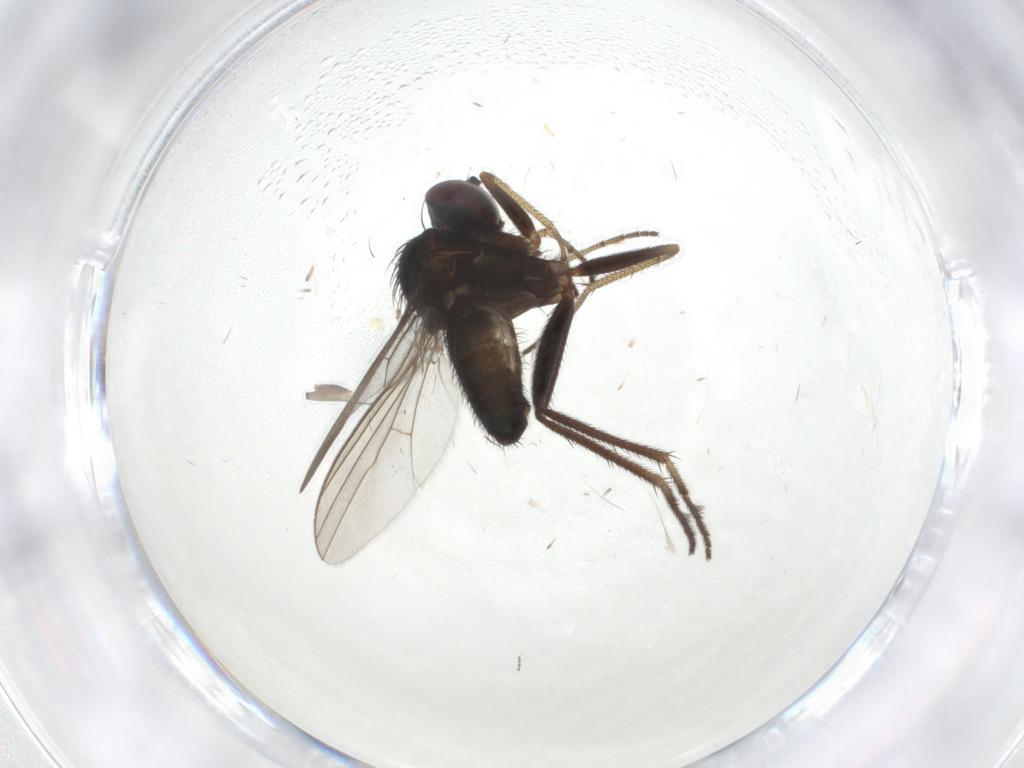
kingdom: Animalia
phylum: Arthropoda
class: Insecta
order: Diptera
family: Dolichopodidae
